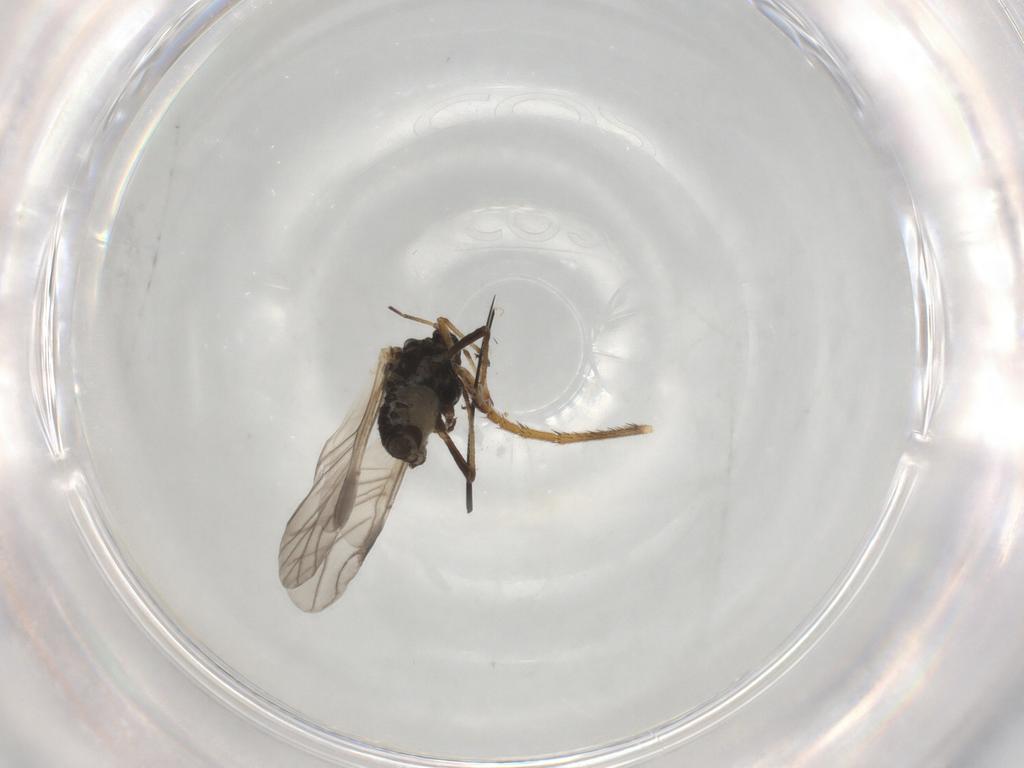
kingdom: Animalia
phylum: Arthropoda
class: Insecta
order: Hemiptera
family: Aphididae
